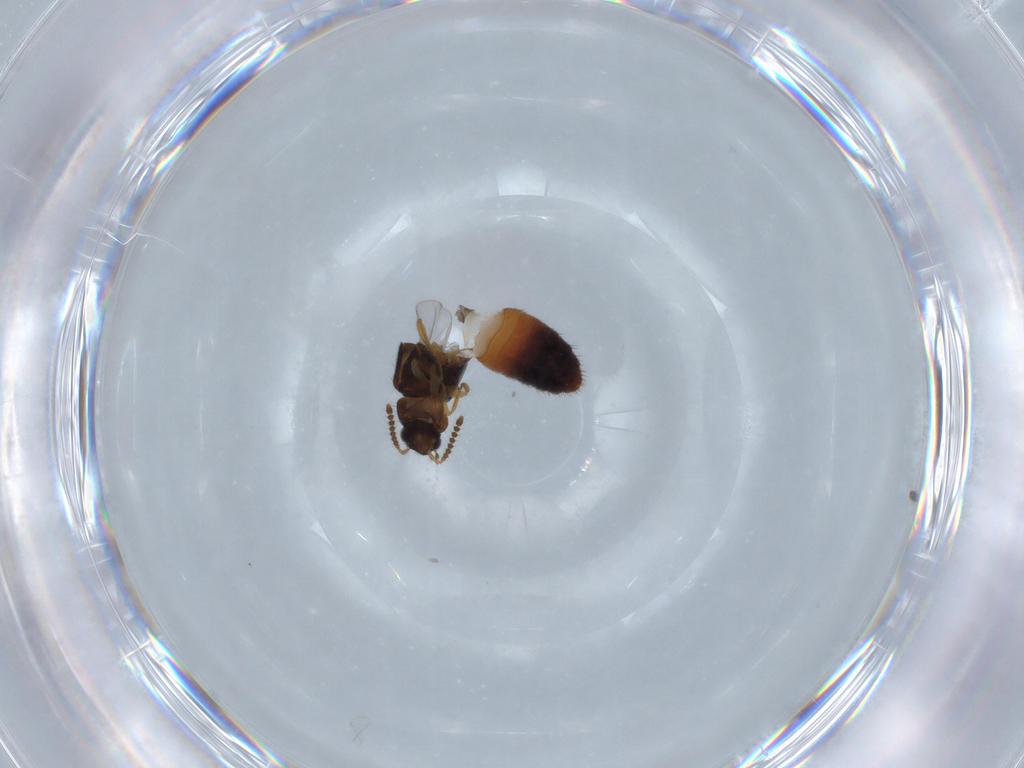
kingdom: Animalia
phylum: Arthropoda
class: Insecta
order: Coleoptera
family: Staphylinidae
